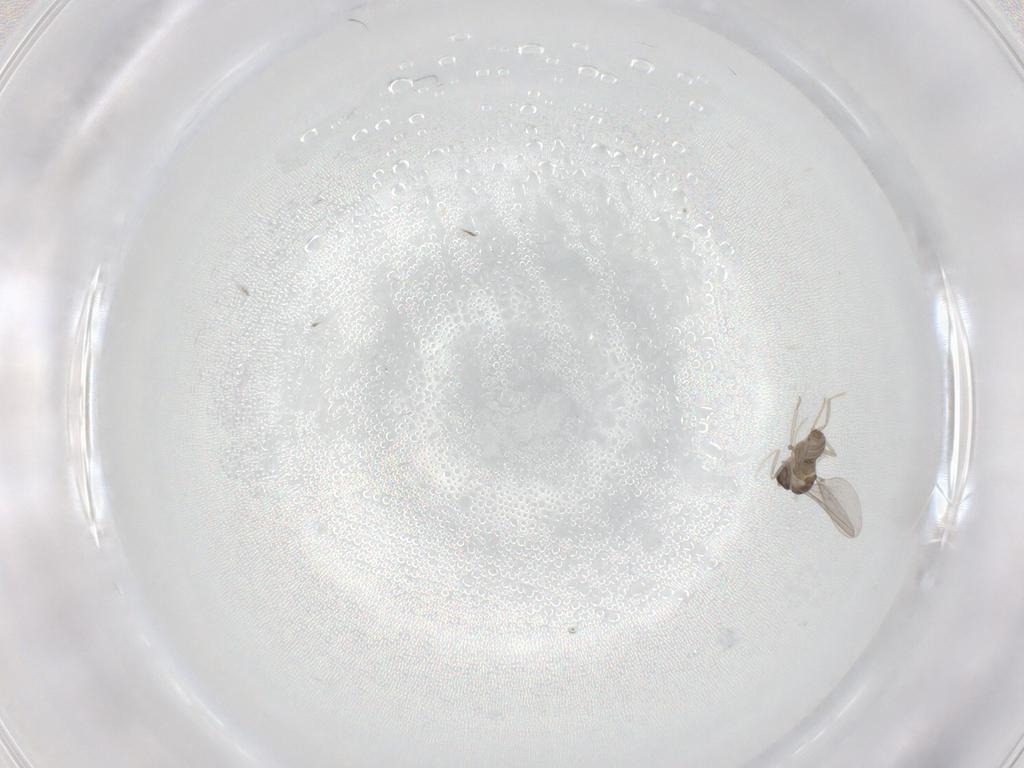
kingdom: Animalia
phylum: Arthropoda
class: Insecta
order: Diptera
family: Cecidomyiidae
